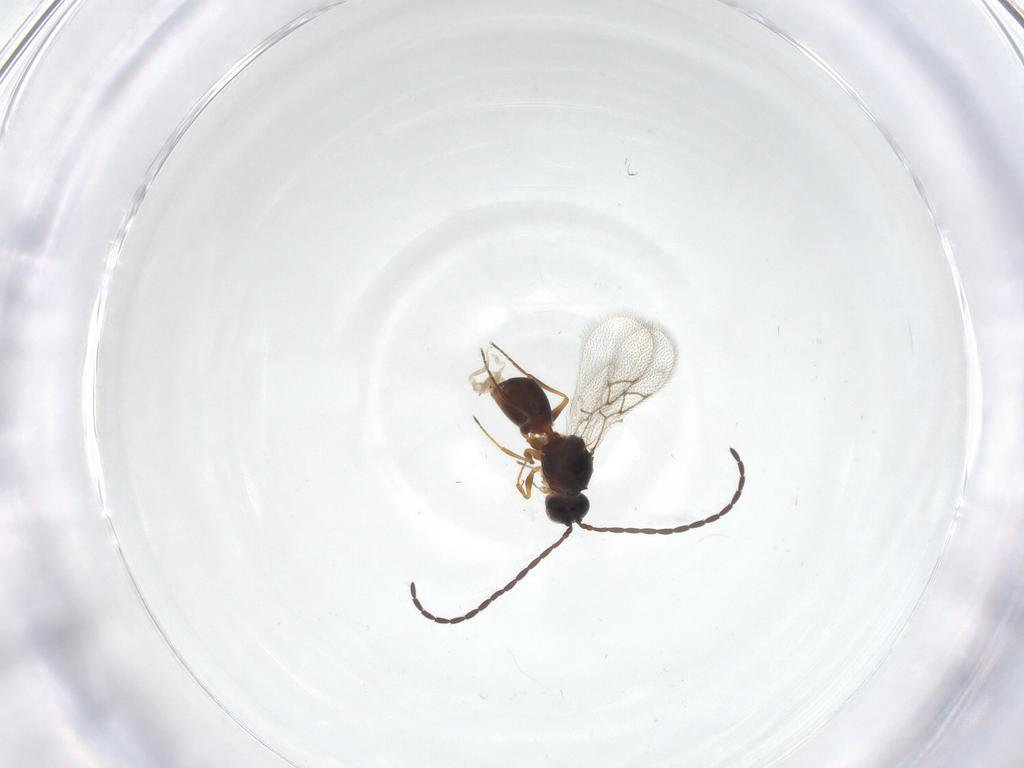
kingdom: Animalia
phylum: Arthropoda
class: Insecta
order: Hymenoptera
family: Figitidae
